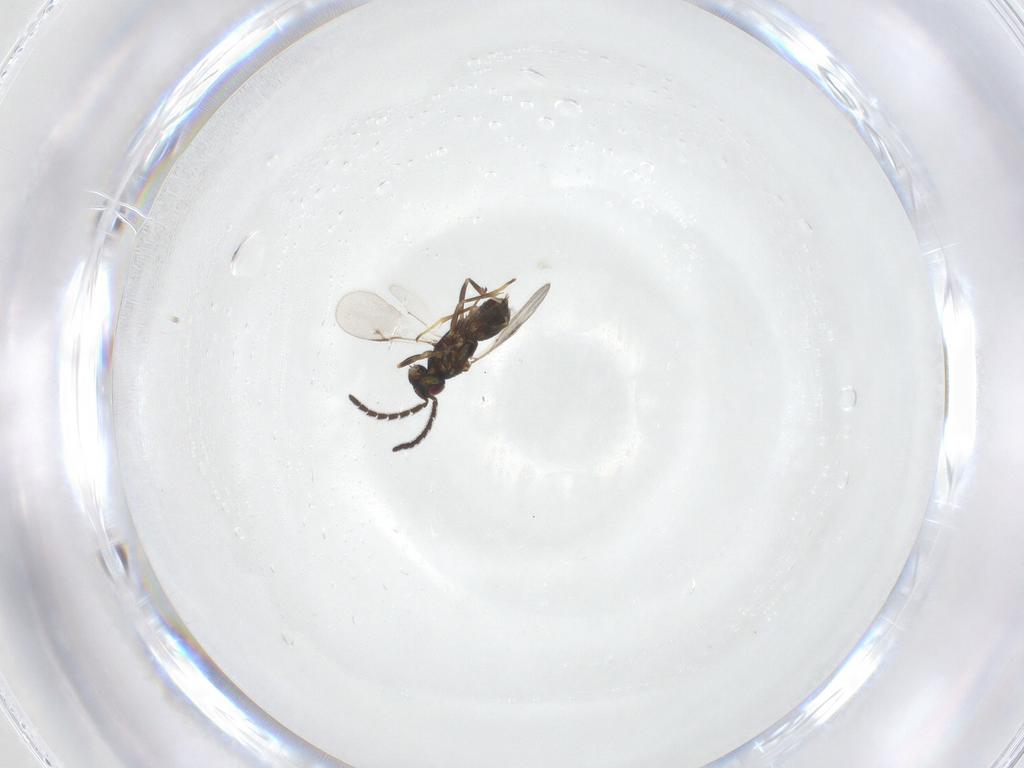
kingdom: Animalia
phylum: Arthropoda
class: Insecta
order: Hymenoptera
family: Encyrtidae
